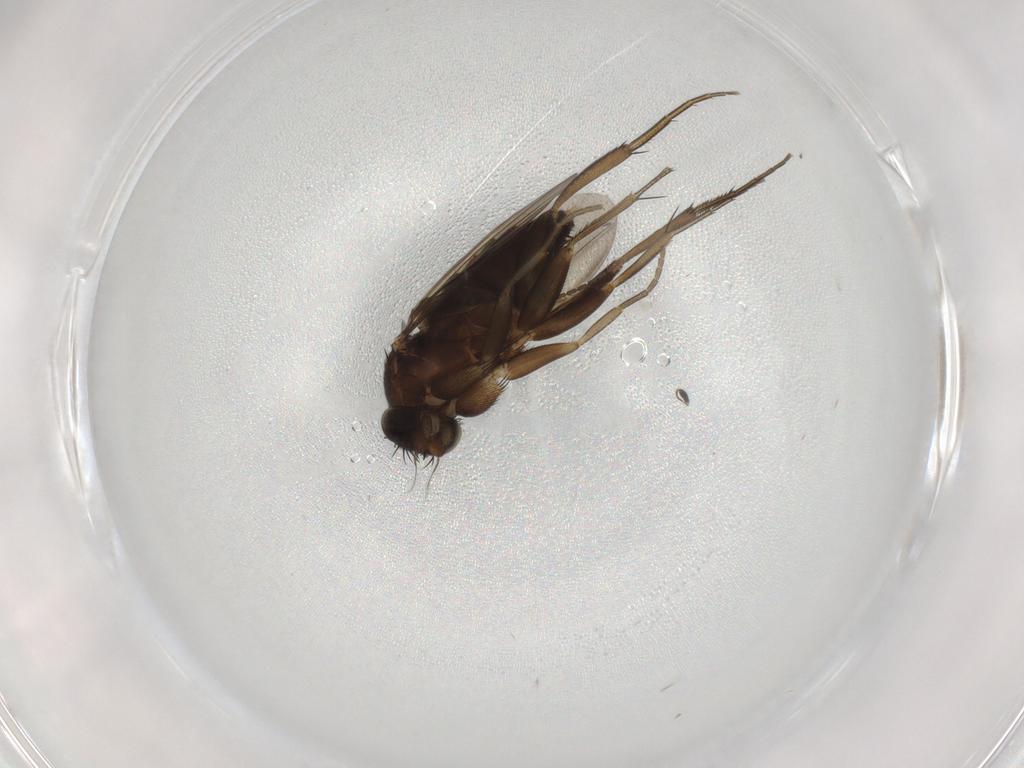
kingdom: Animalia
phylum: Arthropoda
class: Insecta
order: Diptera
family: Phoridae
